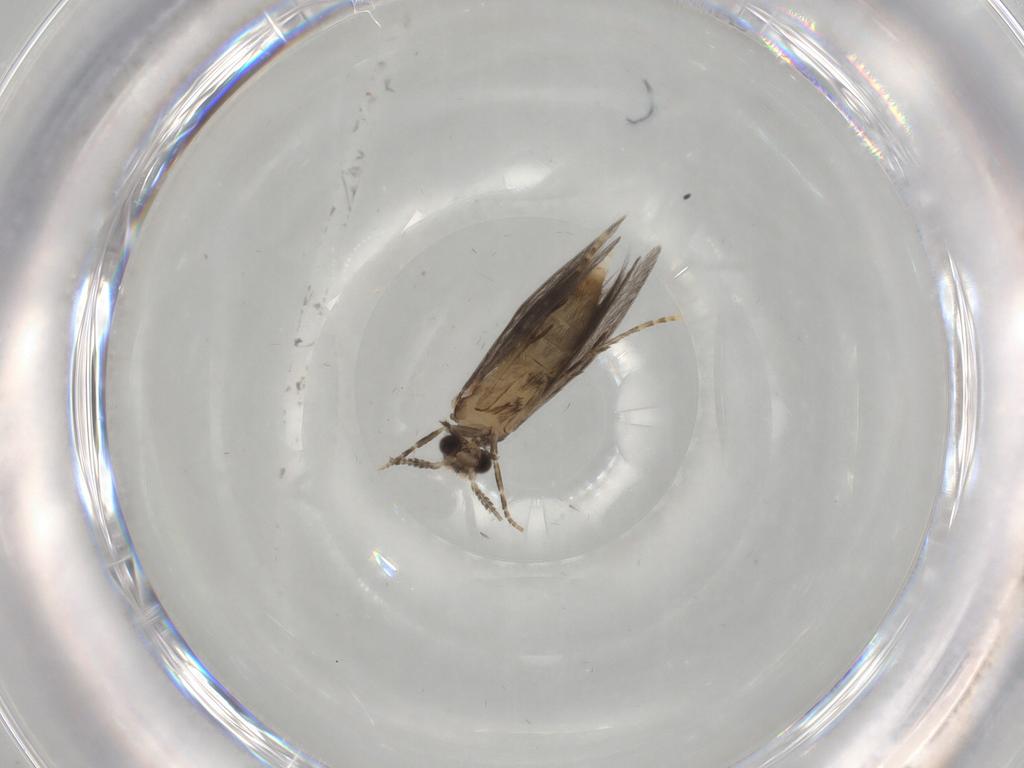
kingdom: Animalia
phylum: Arthropoda
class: Insecta
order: Trichoptera
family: Hydroptilidae
